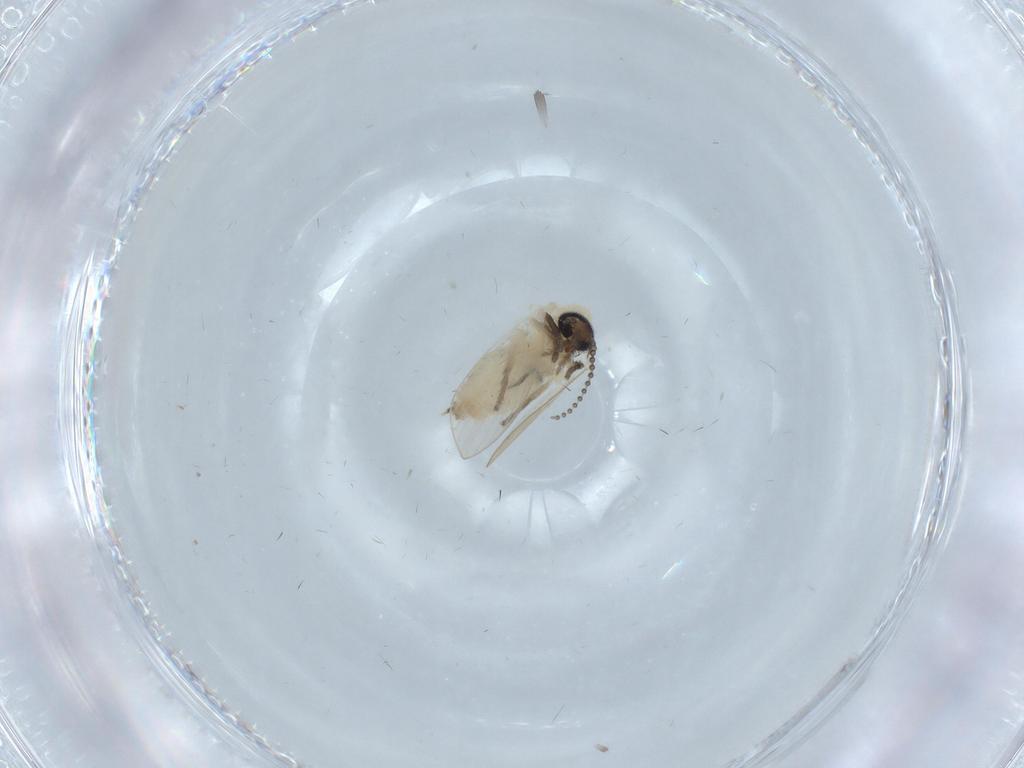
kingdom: Animalia
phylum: Arthropoda
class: Insecta
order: Diptera
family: Psychodidae
